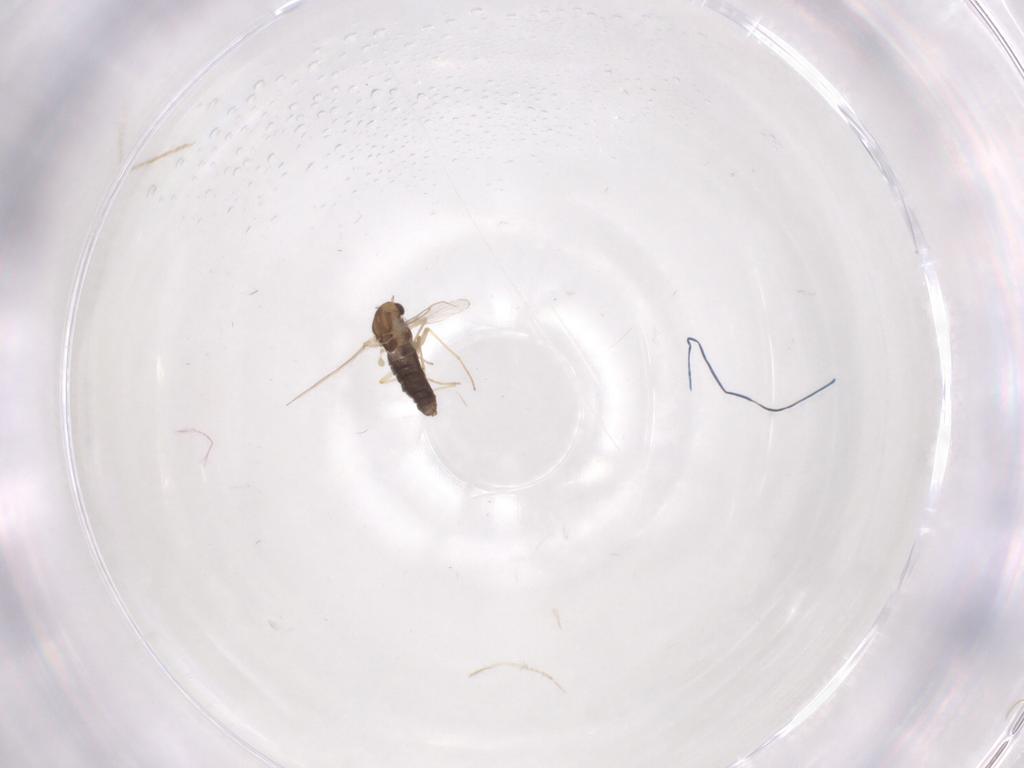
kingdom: Animalia
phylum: Arthropoda
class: Insecta
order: Diptera
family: Chironomidae
